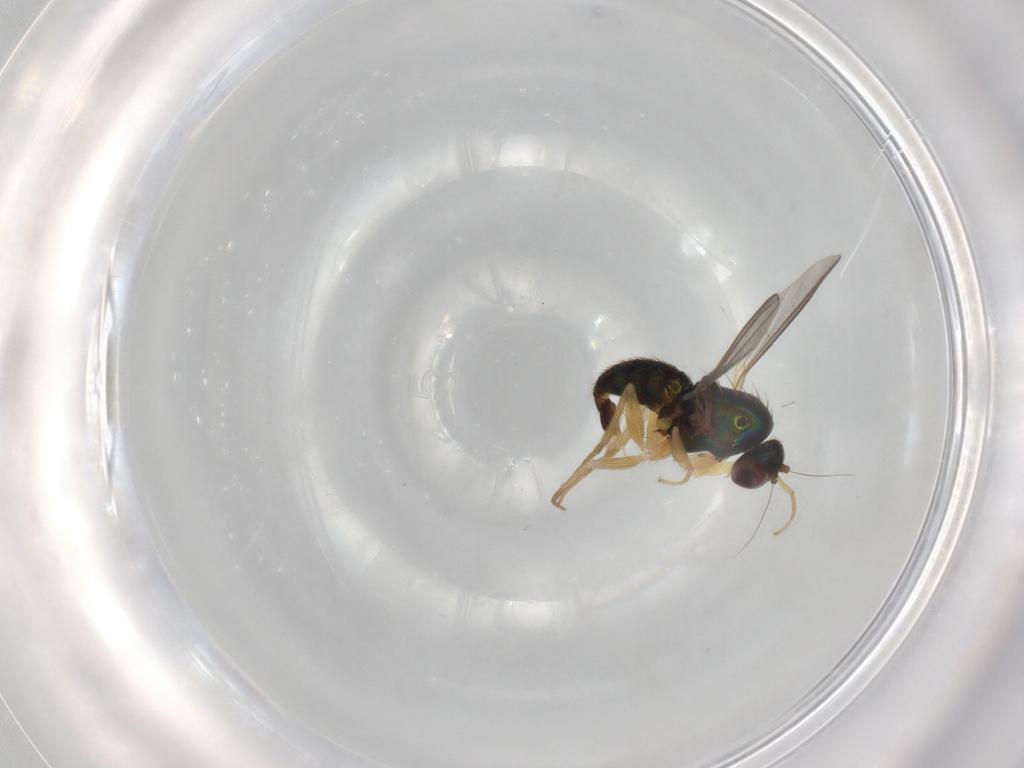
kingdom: Animalia
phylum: Arthropoda
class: Insecta
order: Diptera
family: Dolichopodidae
